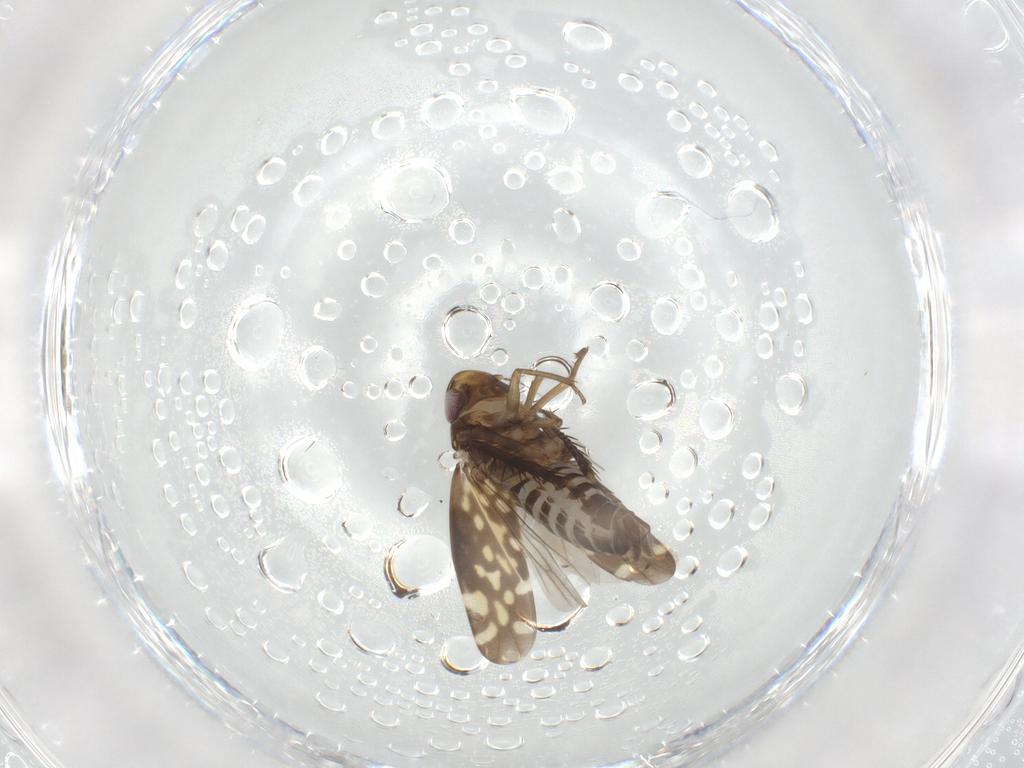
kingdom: Animalia
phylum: Arthropoda
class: Insecta
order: Hemiptera
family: Cicadellidae
